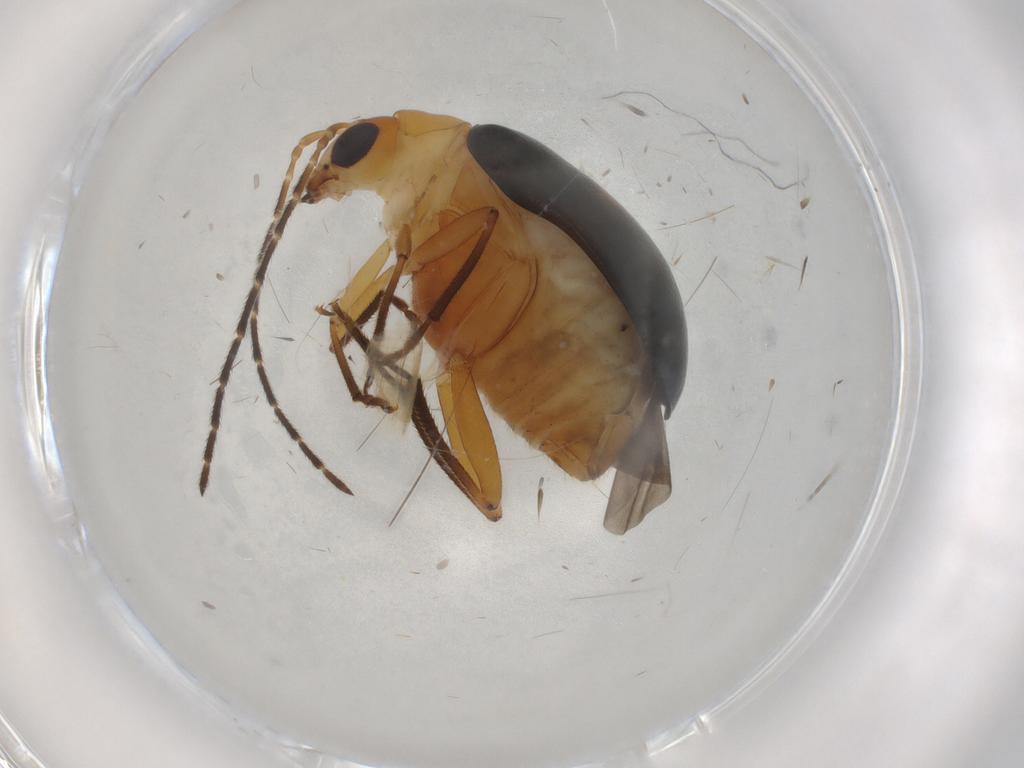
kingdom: Animalia
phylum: Arthropoda
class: Insecta
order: Coleoptera
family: Chrysomelidae
